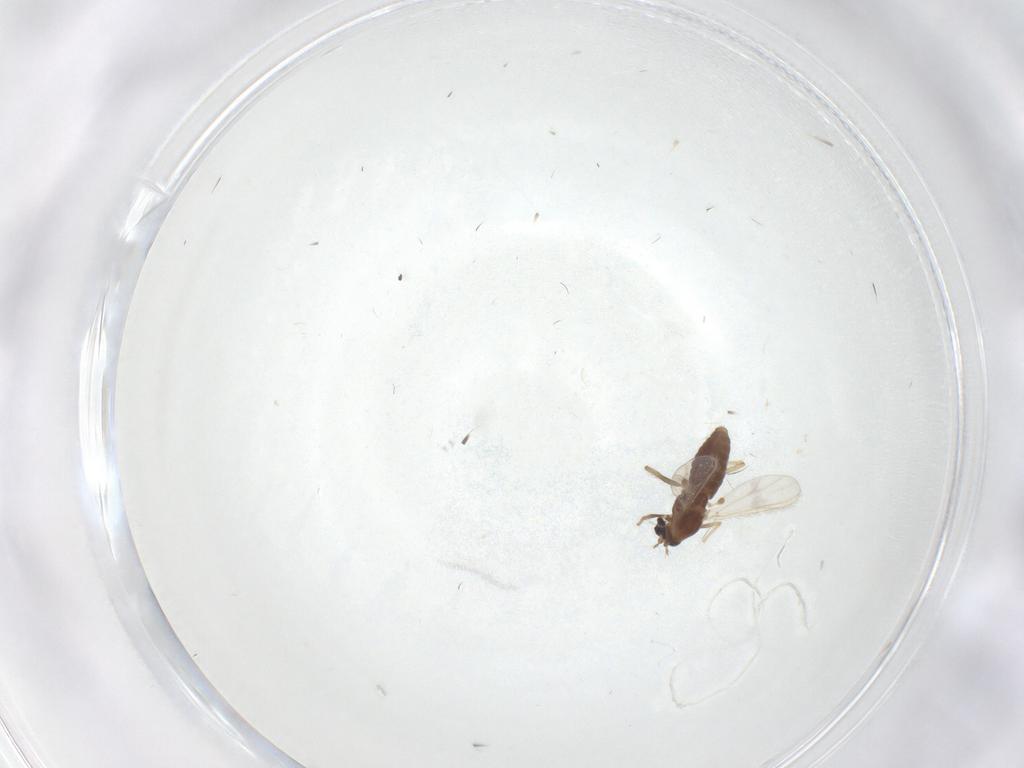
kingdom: Animalia
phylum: Arthropoda
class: Insecta
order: Diptera
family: Chironomidae
